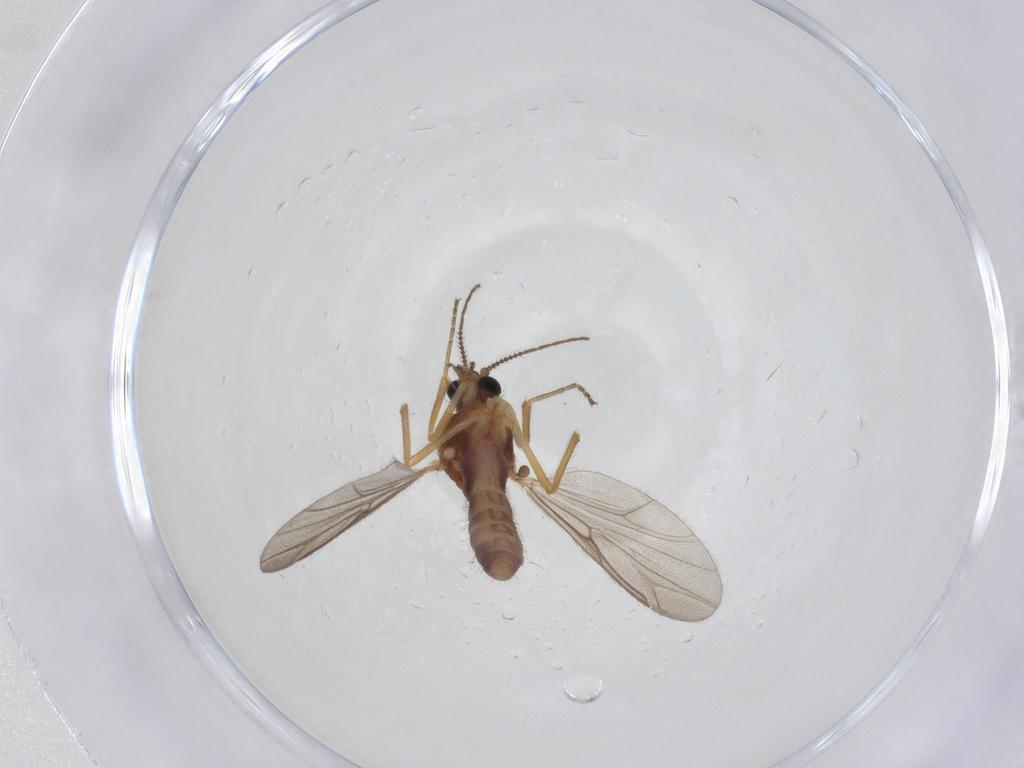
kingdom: Animalia
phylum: Arthropoda
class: Insecta
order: Diptera
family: Ceratopogonidae
